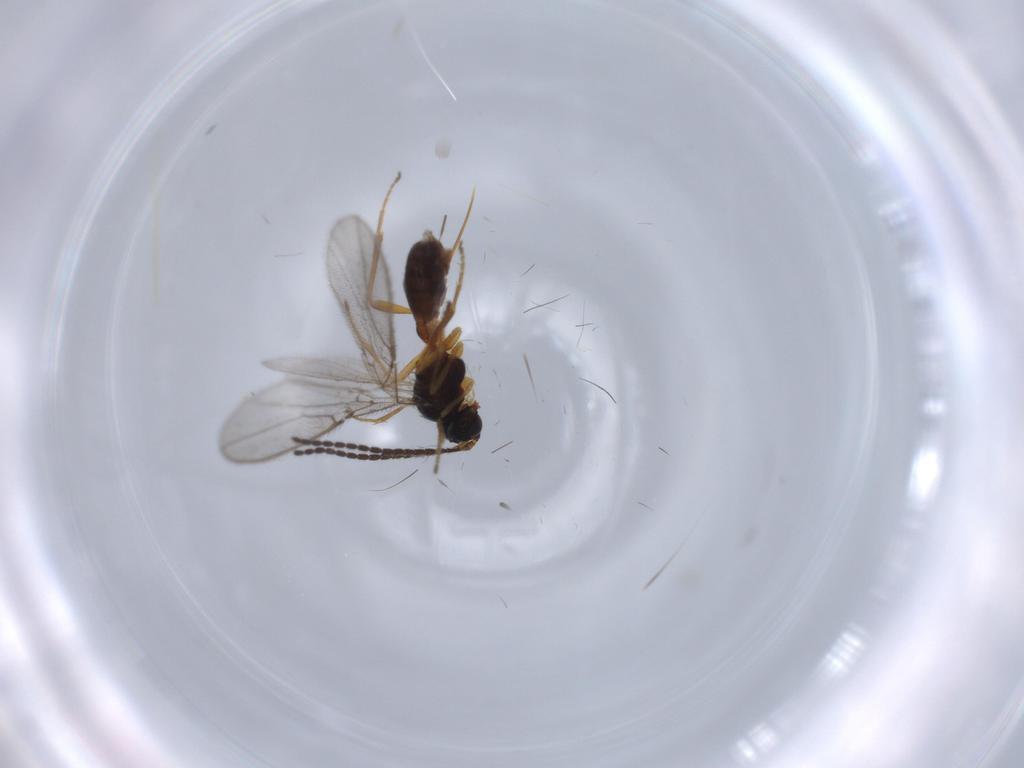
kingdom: Animalia
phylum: Arthropoda
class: Insecta
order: Hymenoptera
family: Braconidae
